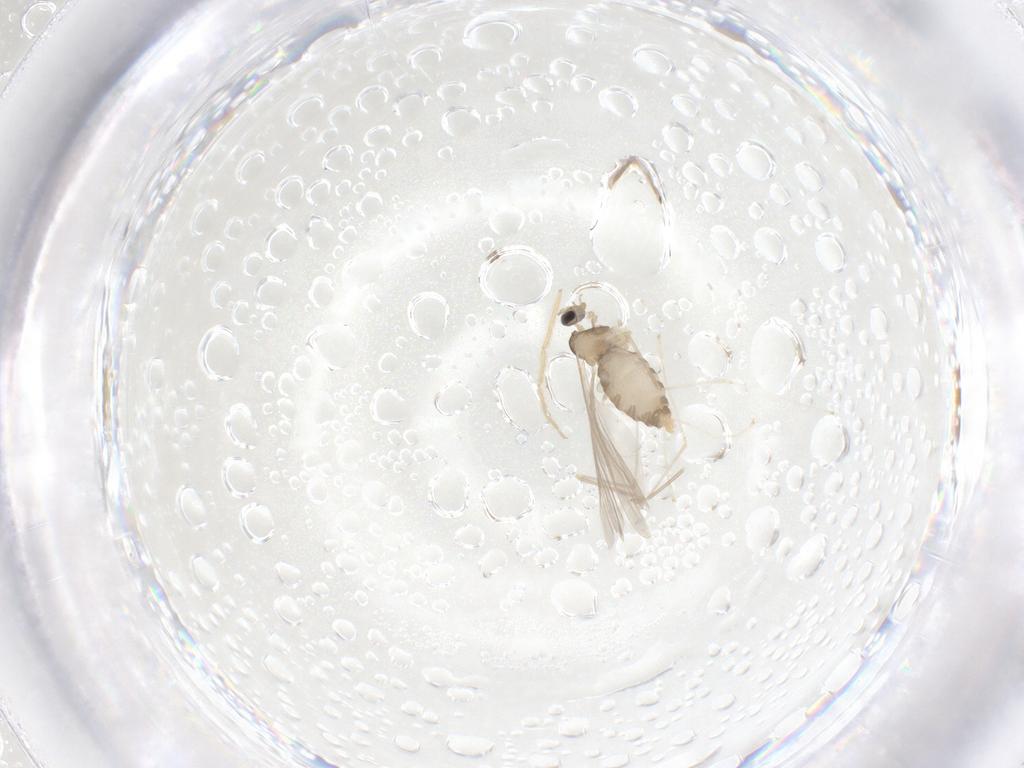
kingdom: Animalia
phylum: Arthropoda
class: Insecta
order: Diptera
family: Cecidomyiidae
